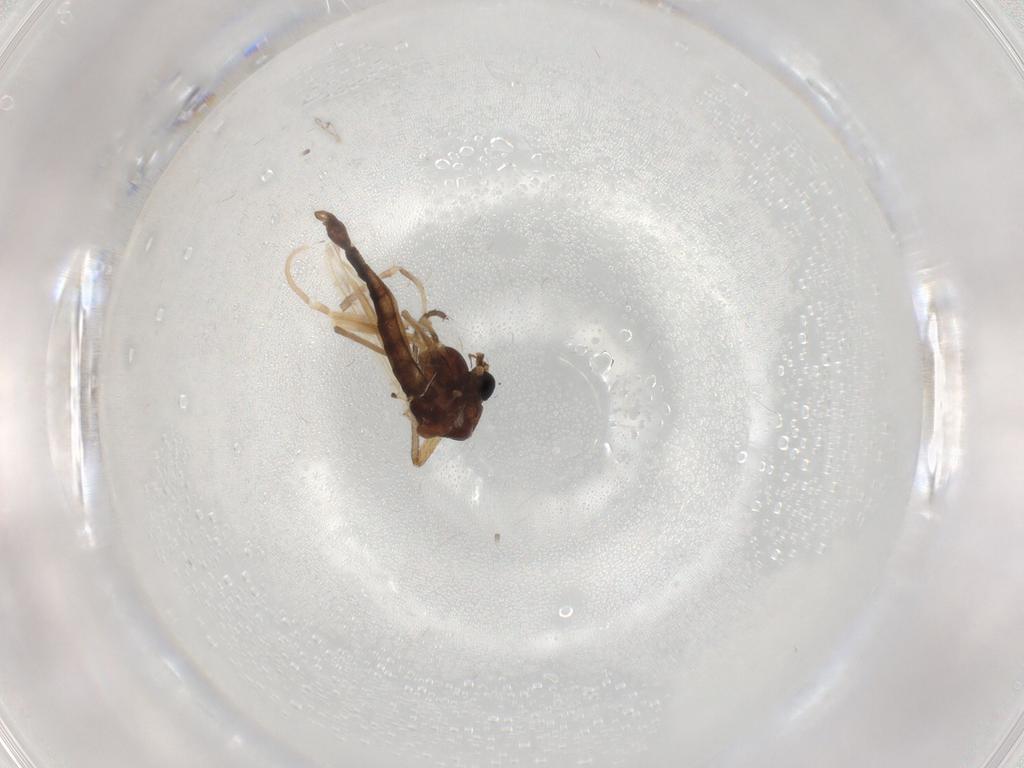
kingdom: Animalia
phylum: Arthropoda
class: Insecta
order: Diptera
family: Chironomidae
